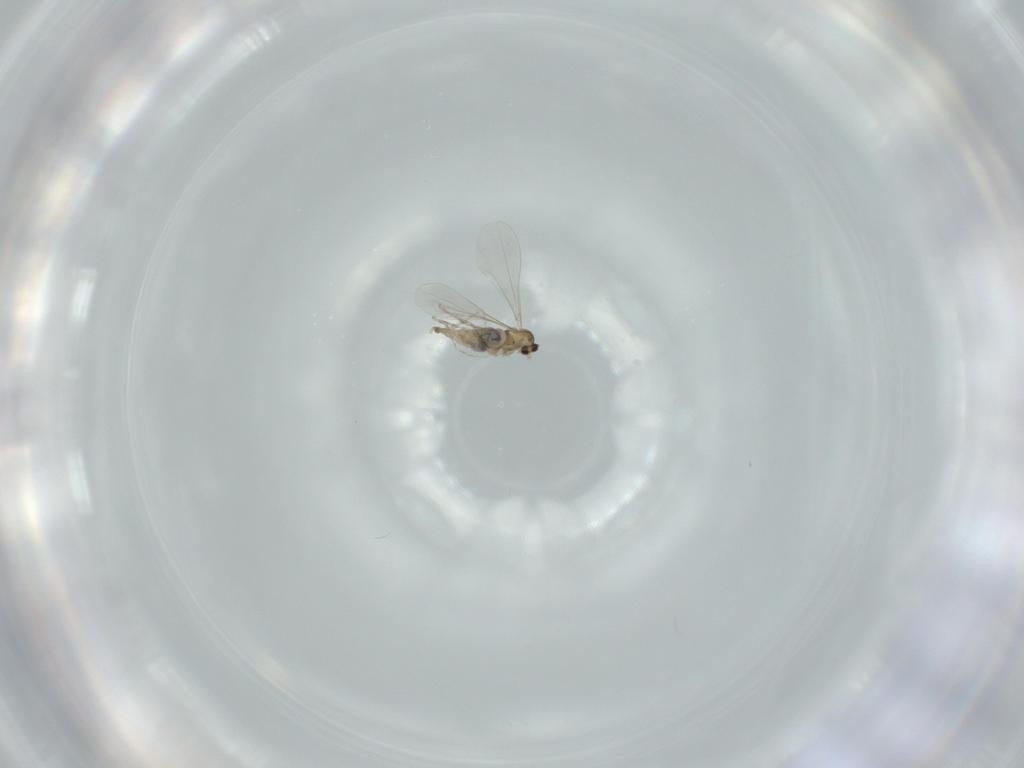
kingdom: Animalia
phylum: Arthropoda
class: Insecta
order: Diptera
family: Cecidomyiidae
